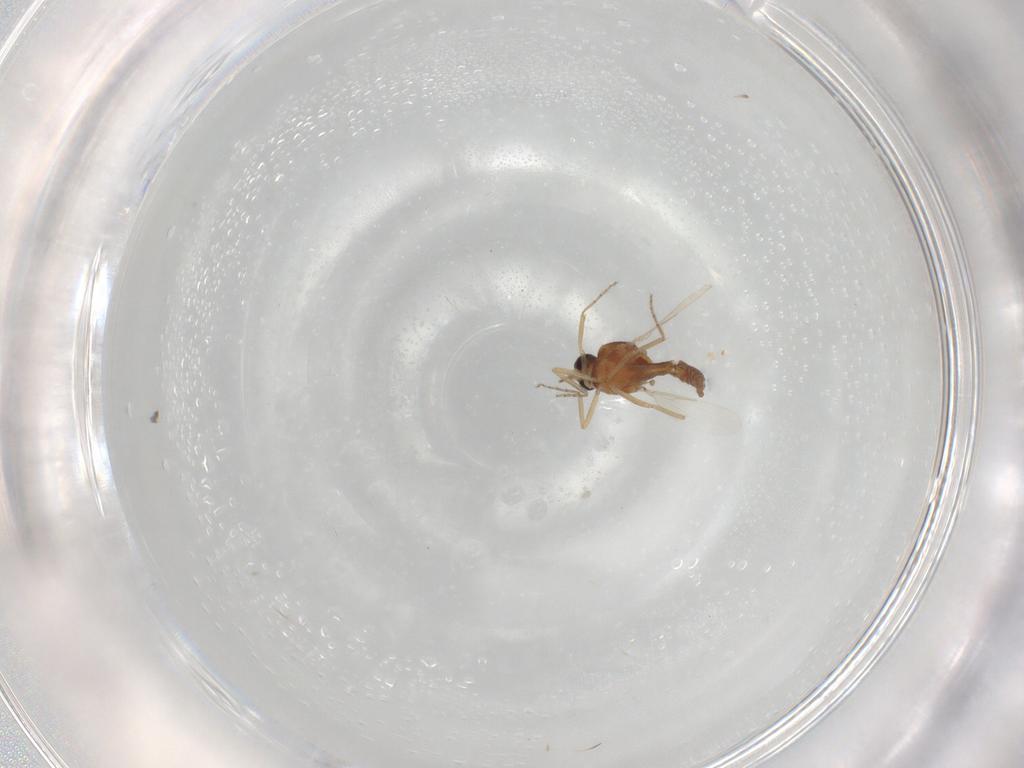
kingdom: Animalia
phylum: Arthropoda
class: Insecta
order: Diptera
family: Ceratopogonidae
